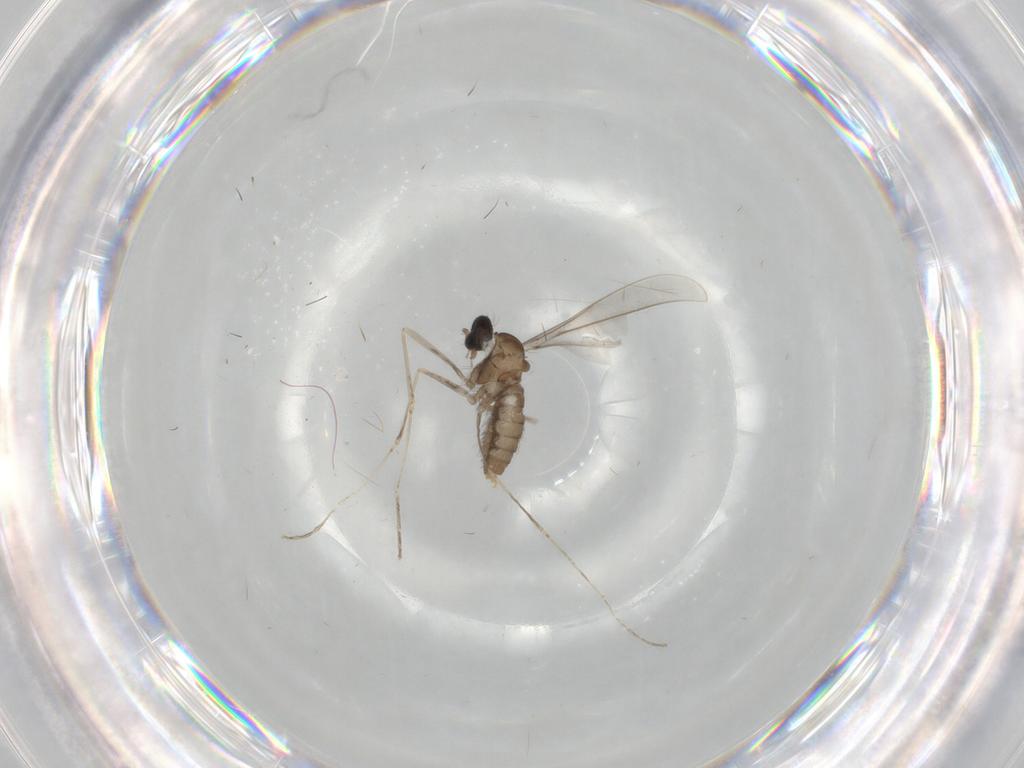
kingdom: Animalia
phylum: Arthropoda
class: Insecta
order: Diptera
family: Cecidomyiidae
